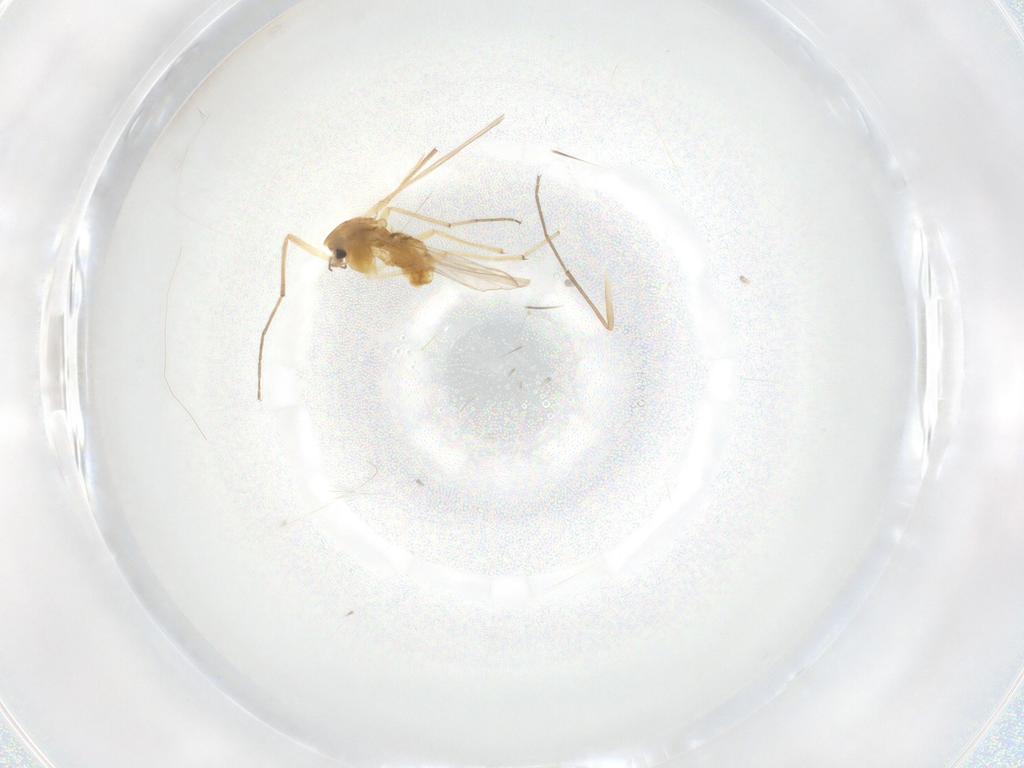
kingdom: Animalia
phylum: Arthropoda
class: Insecta
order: Diptera
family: Chironomidae
